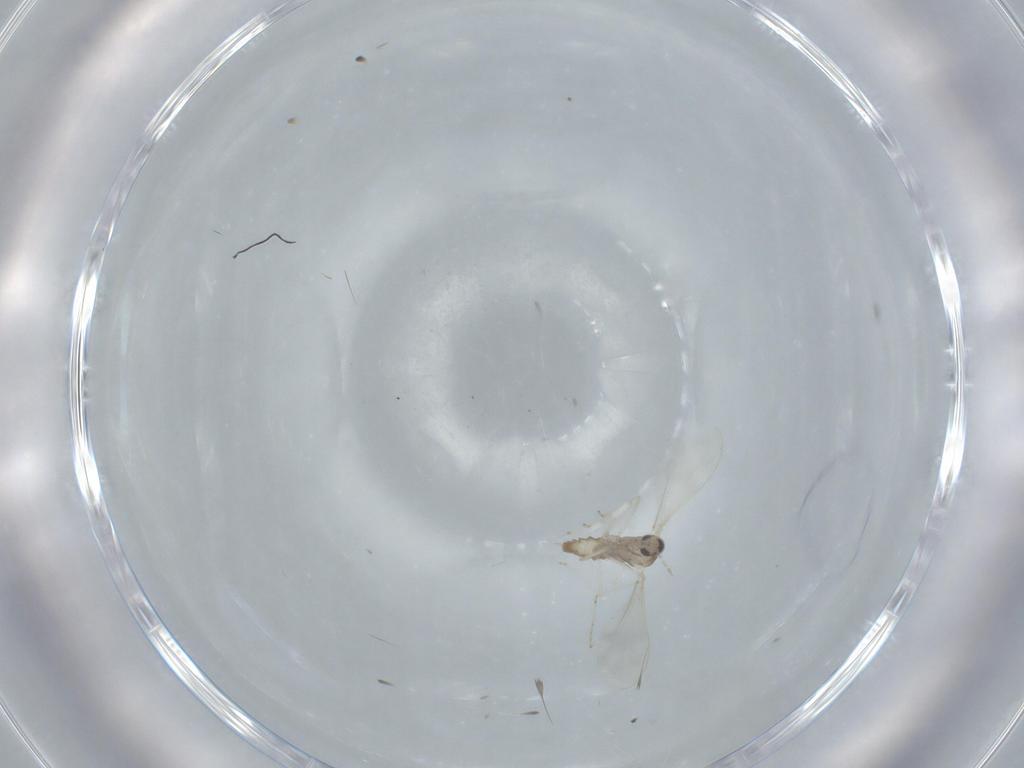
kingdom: Animalia
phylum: Arthropoda
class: Insecta
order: Diptera
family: Cecidomyiidae
